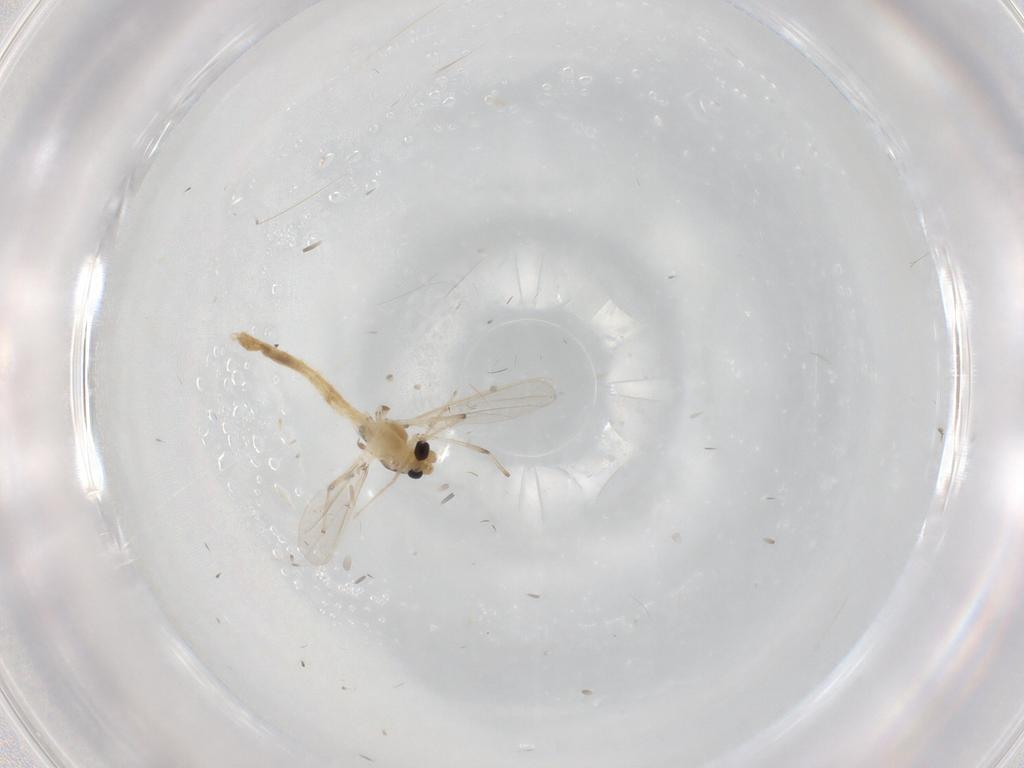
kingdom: Animalia
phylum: Arthropoda
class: Insecta
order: Diptera
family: Chironomidae
